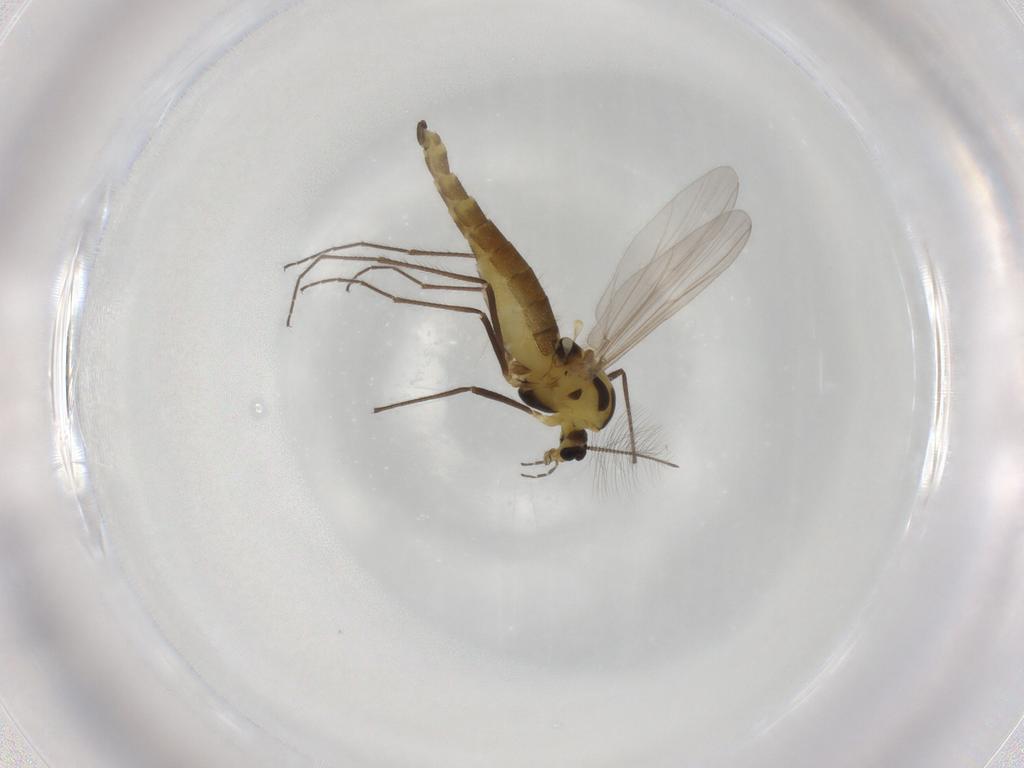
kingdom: Animalia
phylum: Arthropoda
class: Insecta
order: Diptera
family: Chironomidae
